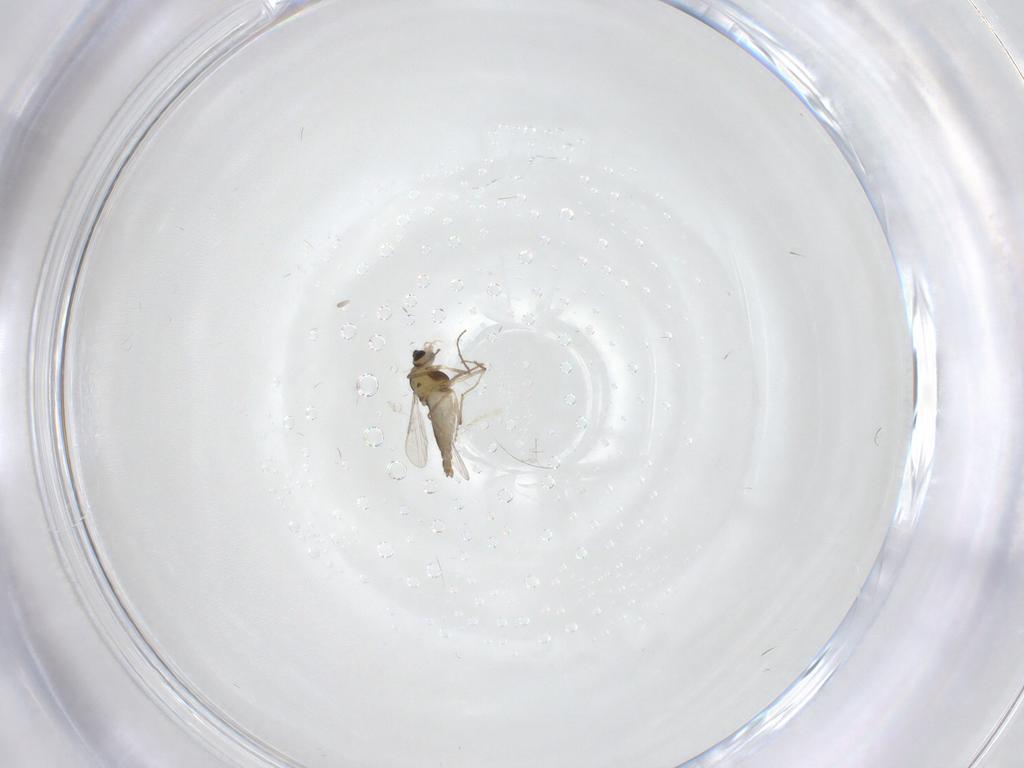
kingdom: Animalia
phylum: Arthropoda
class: Insecta
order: Diptera
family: Chironomidae
